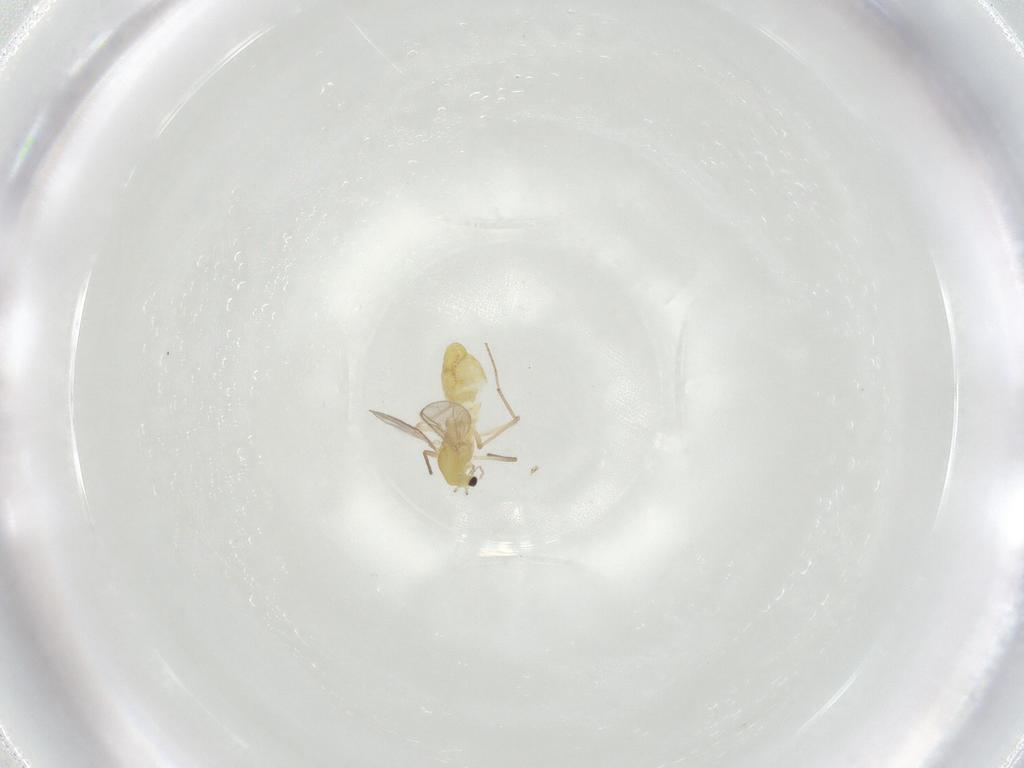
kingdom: Animalia
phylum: Arthropoda
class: Insecta
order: Diptera
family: Chironomidae
